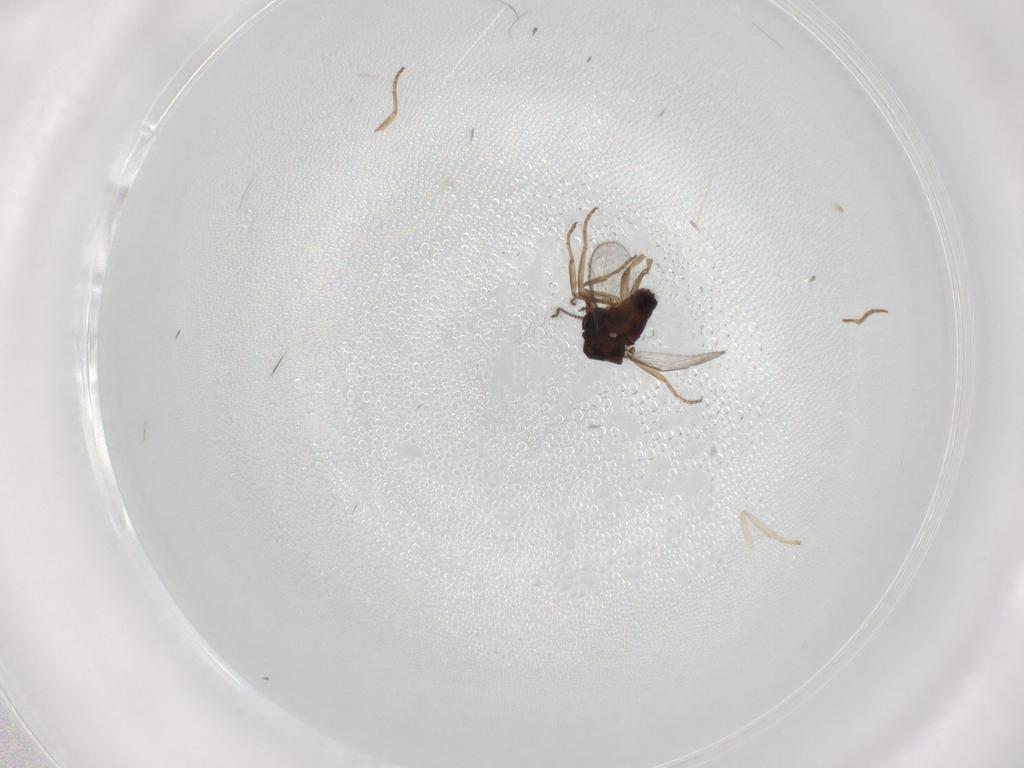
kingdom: Animalia
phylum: Arthropoda
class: Insecta
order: Diptera
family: Ceratopogonidae
